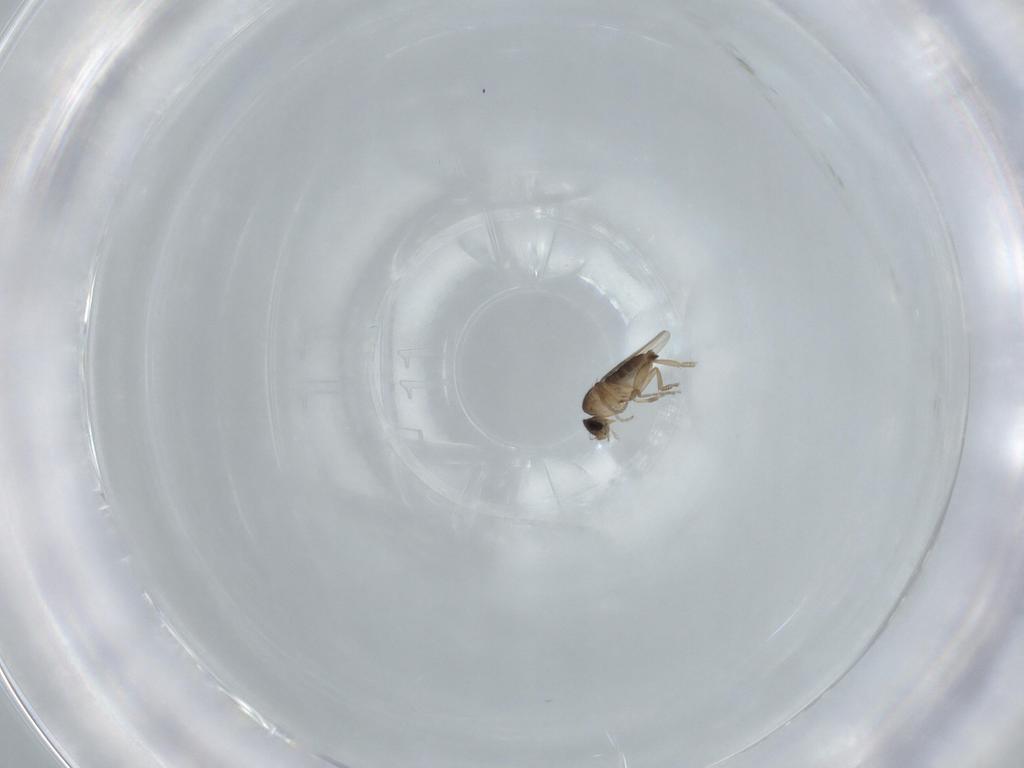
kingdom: Animalia
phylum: Arthropoda
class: Insecta
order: Diptera
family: Phoridae
